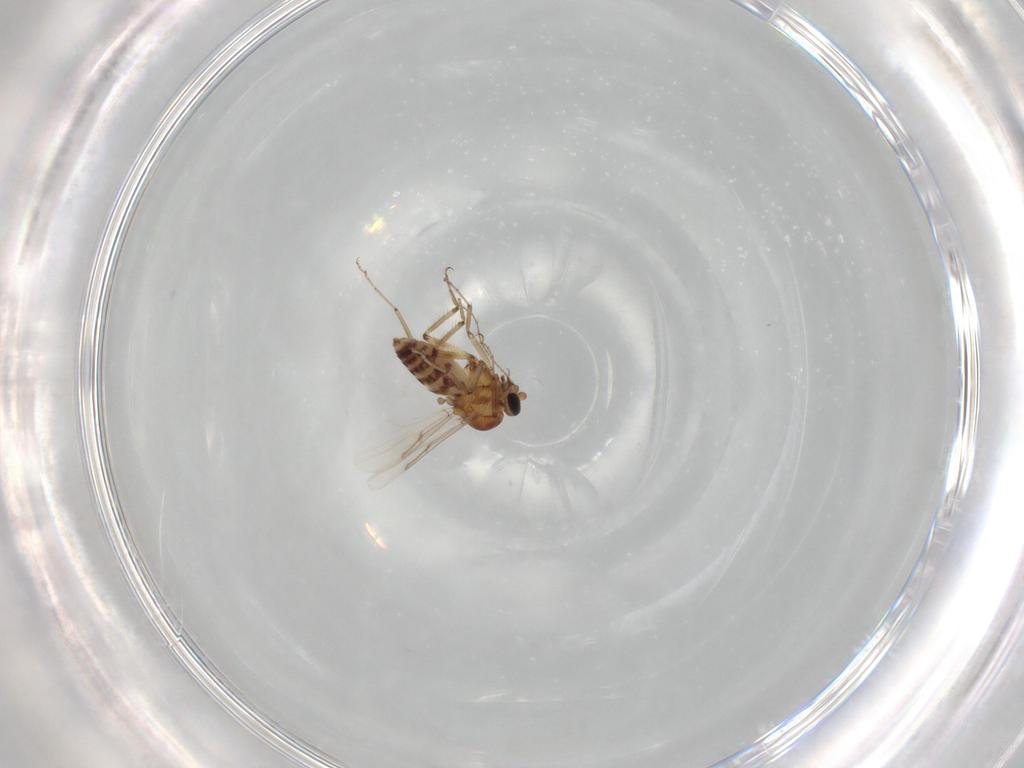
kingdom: Animalia
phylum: Arthropoda
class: Insecta
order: Diptera
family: Ceratopogonidae
